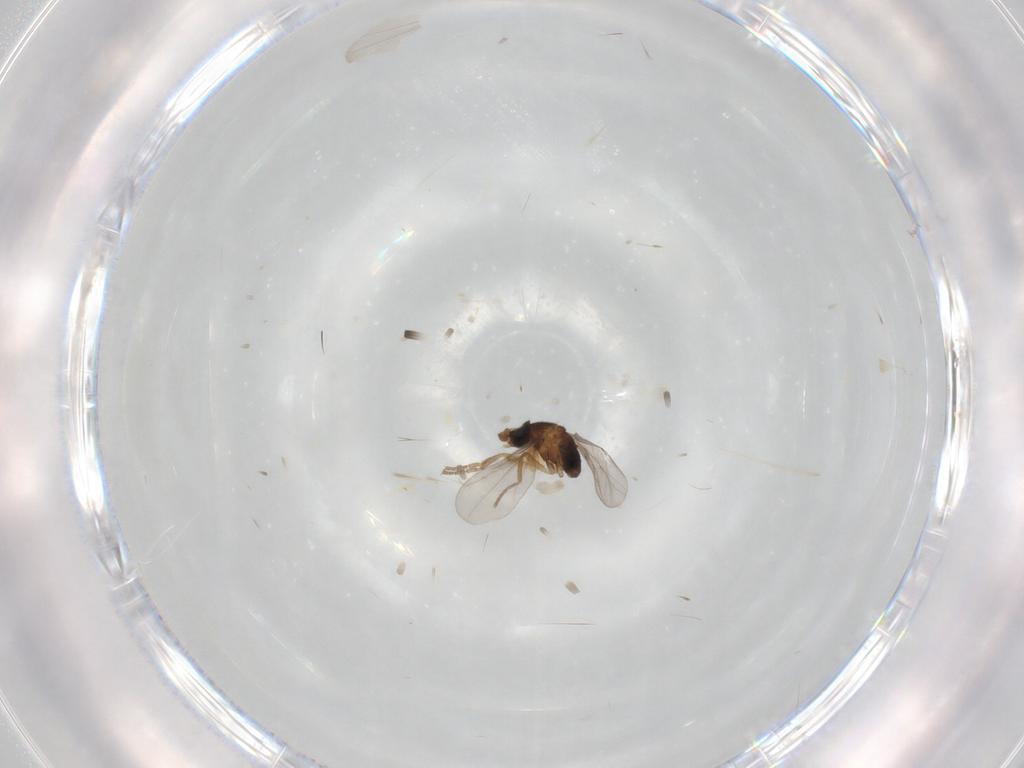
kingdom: Animalia
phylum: Arthropoda
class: Insecta
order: Diptera
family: Phoridae
